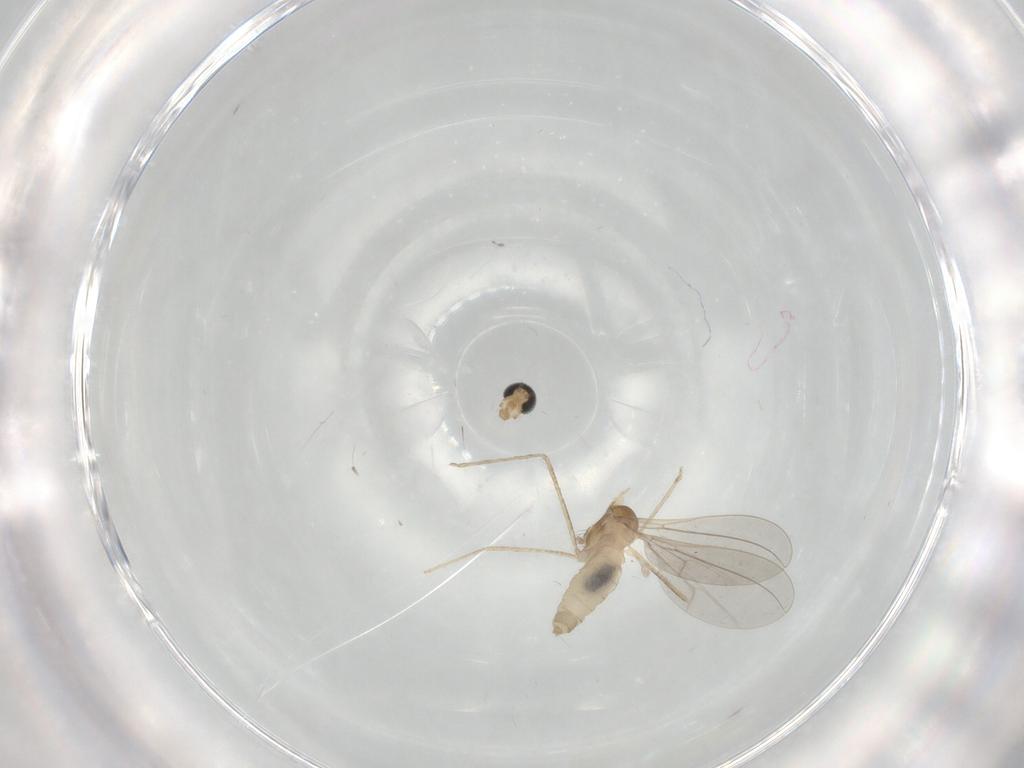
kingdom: Animalia
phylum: Arthropoda
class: Insecta
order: Diptera
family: Cecidomyiidae
